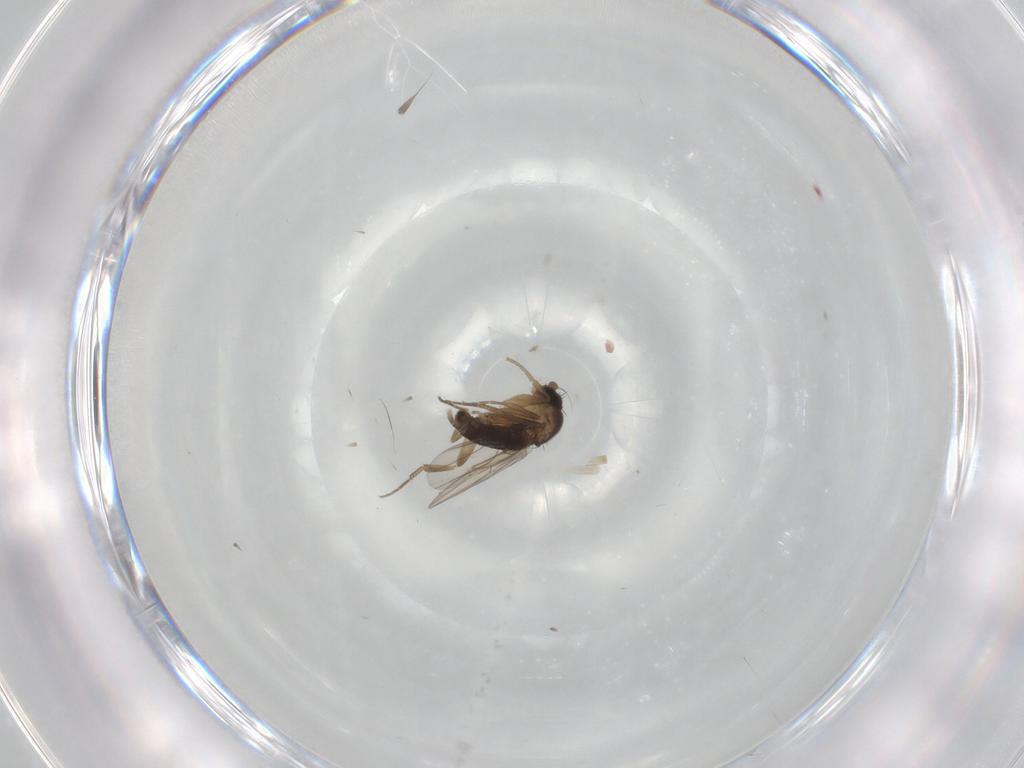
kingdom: Animalia
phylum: Arthropoda
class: Insecta
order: Diptera
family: Phoridae
